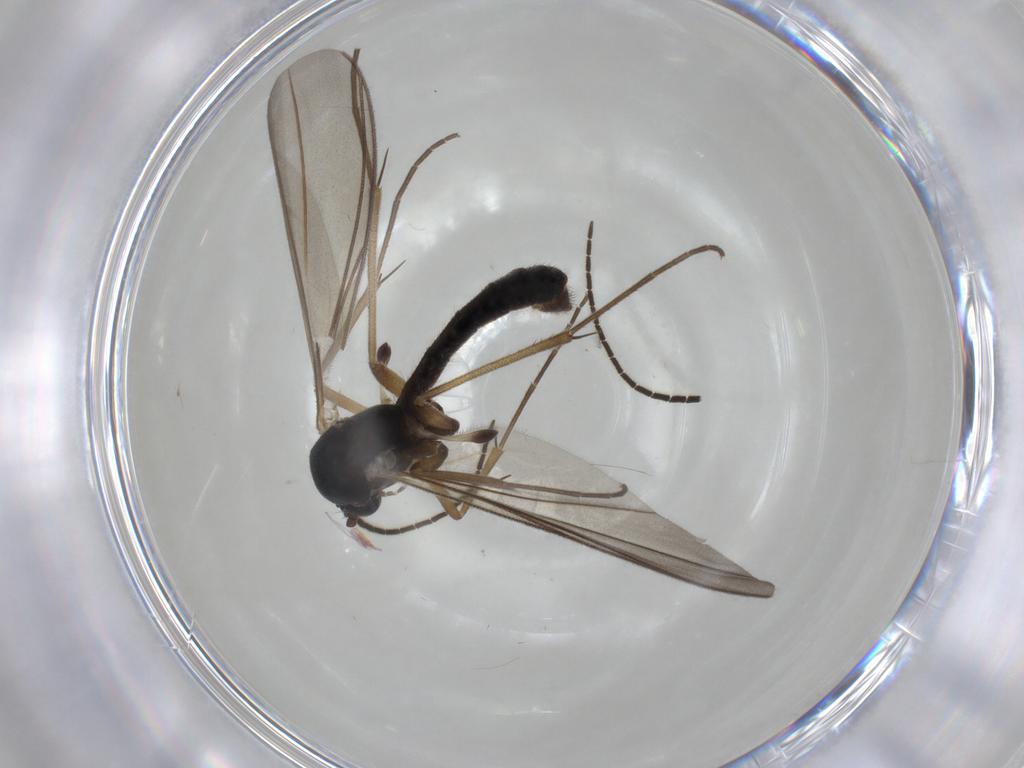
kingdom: Animalia
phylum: Arthropoda
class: Insecta
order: Diptera
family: Mycetophilidae
